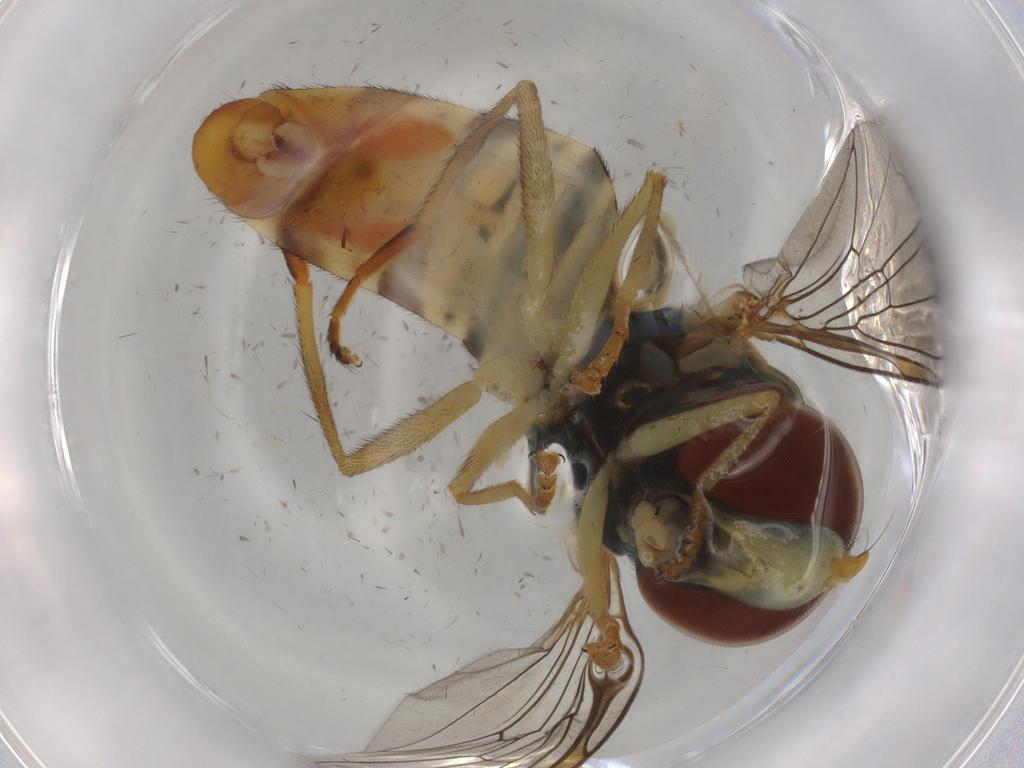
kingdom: Animalia
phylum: Arthropoda
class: Insecta
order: Diptera
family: Syrphidae
